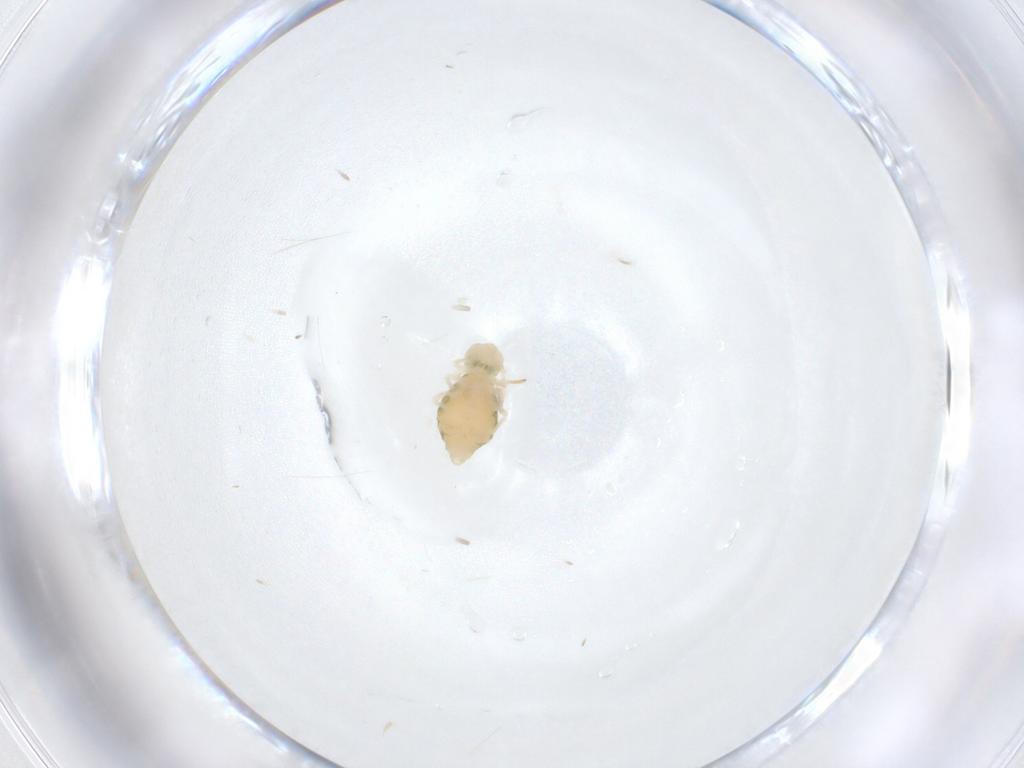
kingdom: Animalia
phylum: Arthropoda
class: Collembola
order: Symphypleona
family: Katiannidae
